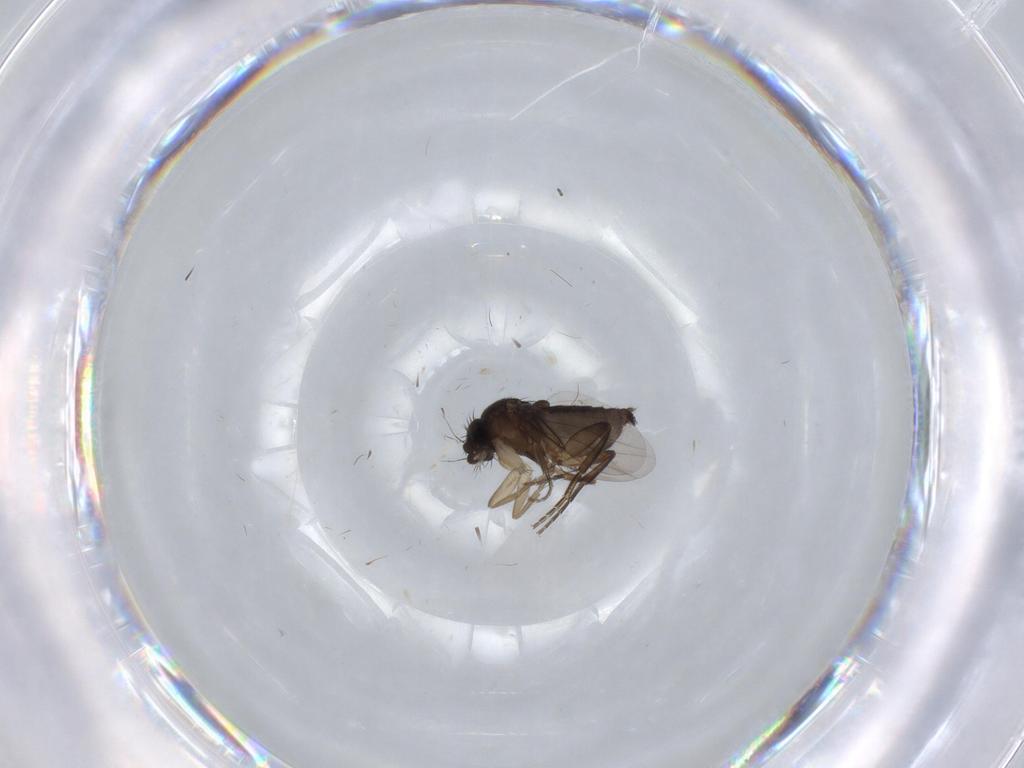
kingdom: Animalia
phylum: Arthropoda
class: Insecta
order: Diptera
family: Phoridae
